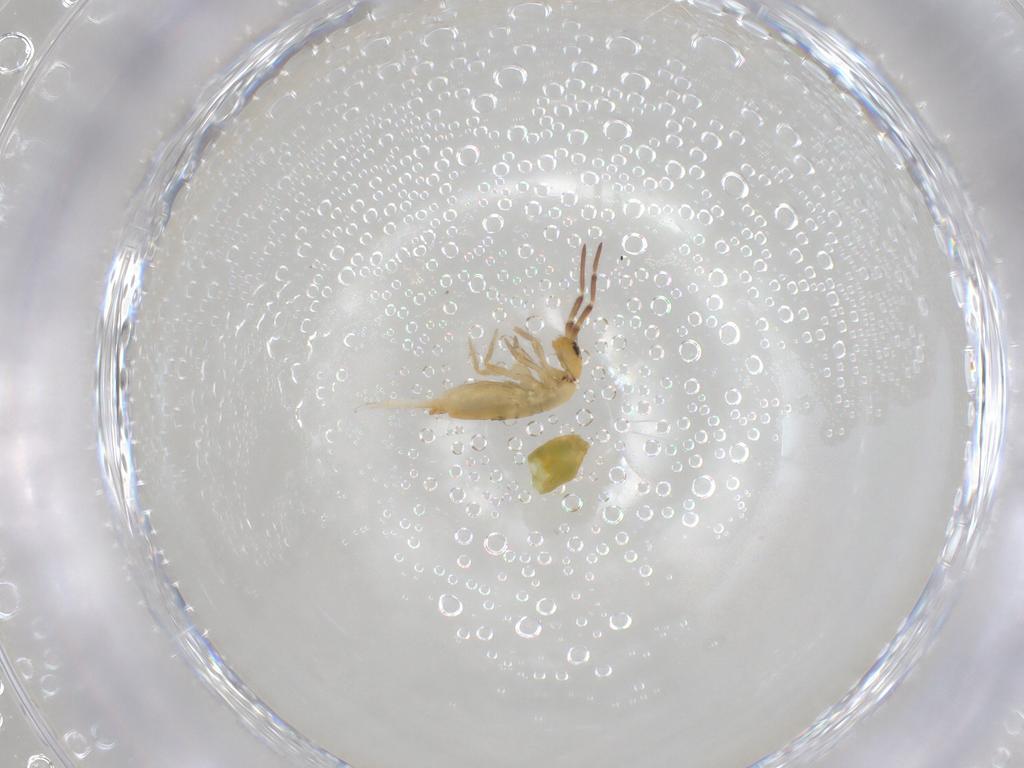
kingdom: Animalia
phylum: Arthropoda
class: Collembola
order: Entomobryomorpha
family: Entomobryidae
